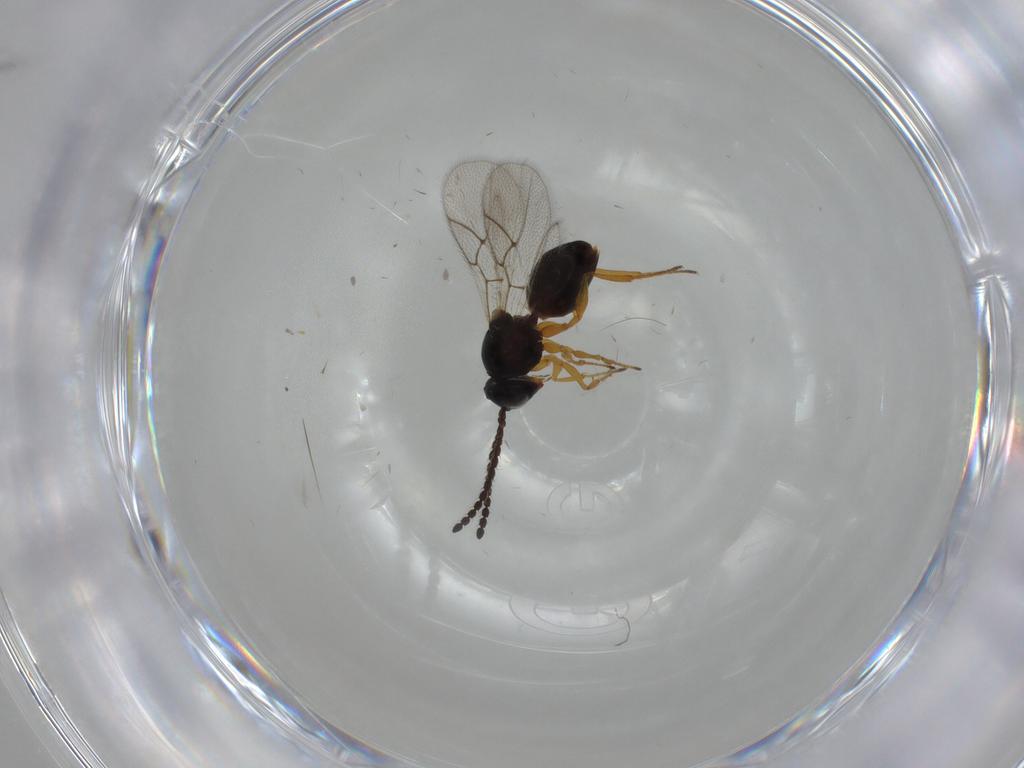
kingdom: Animalia
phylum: Arthropoda
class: Insecta
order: Hymenoptera
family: Figitidae
